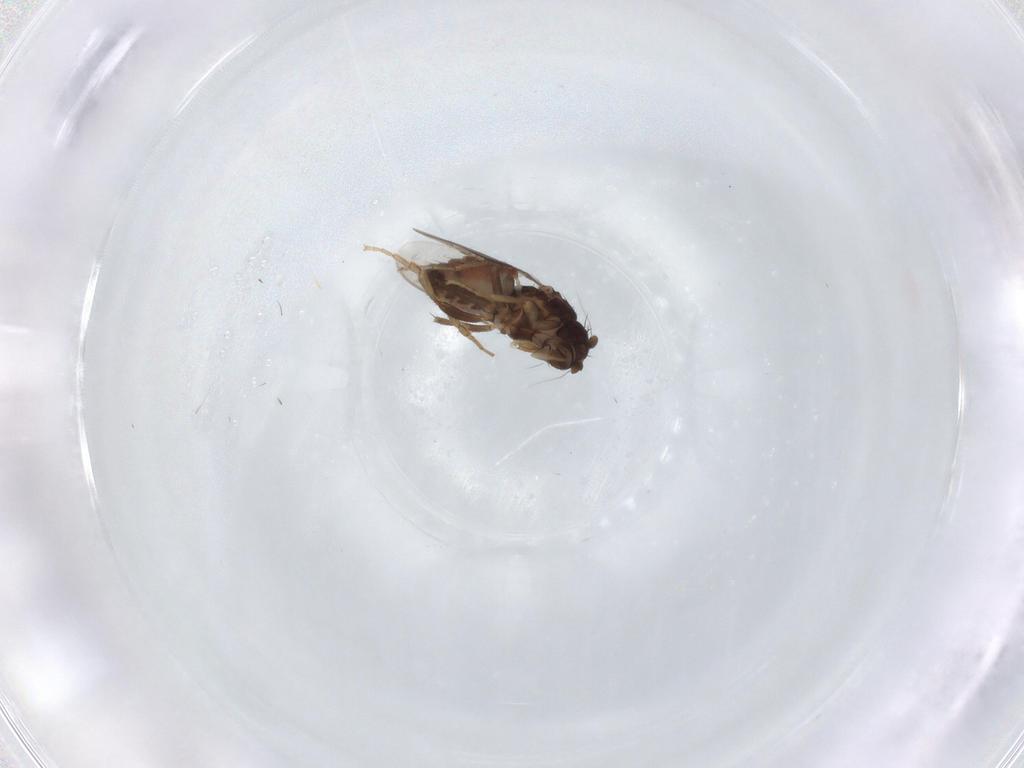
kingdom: Animalia
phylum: Arthropoda
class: Insecta
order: Diptera
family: Sphaeroceridae
